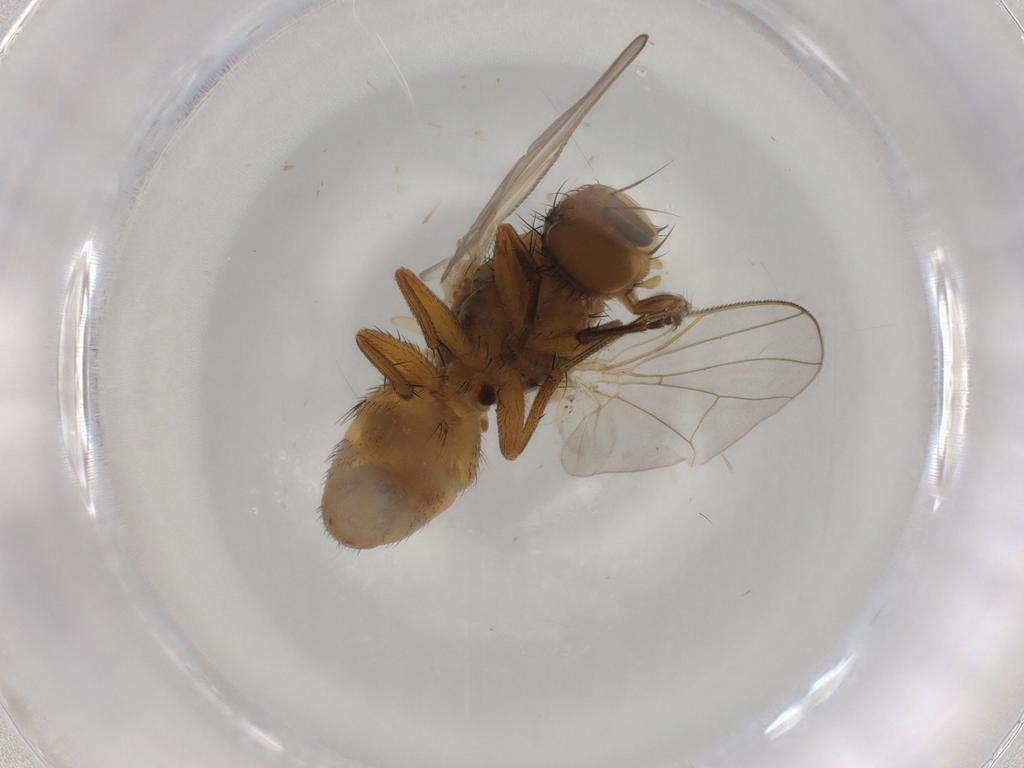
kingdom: Animalia
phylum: Arthropoda
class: Insecta
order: Diptera
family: Muscidae
